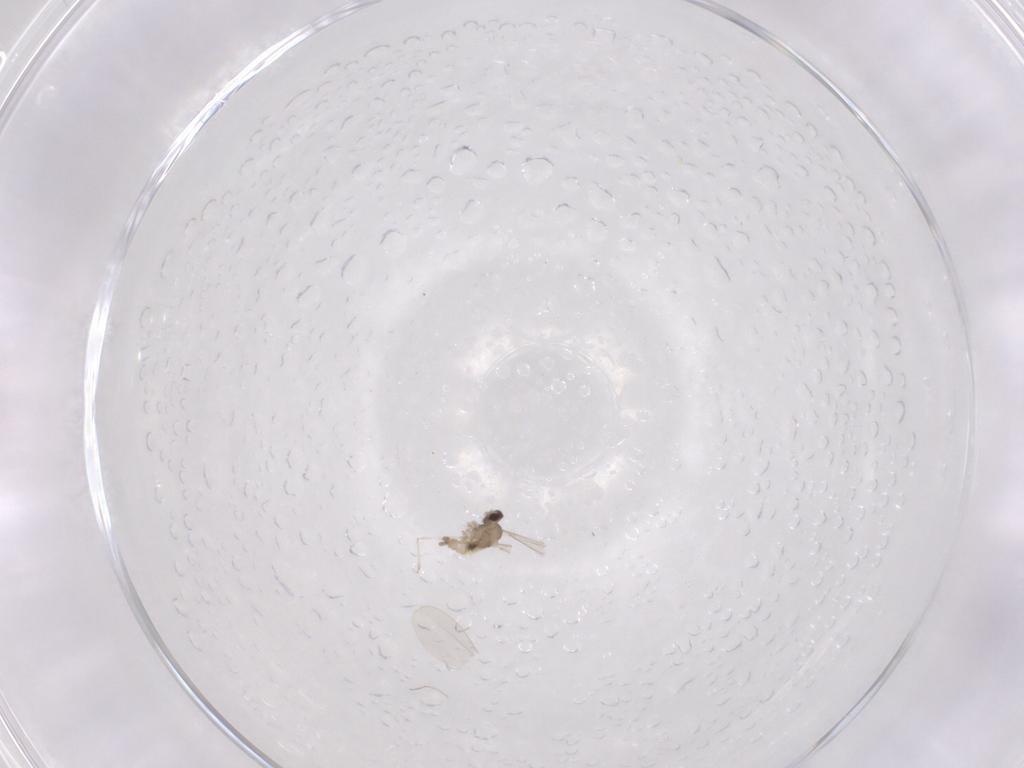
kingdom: Animalia
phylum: Arthropoda
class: Insecta
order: Diptera
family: Cecidomyiidae
